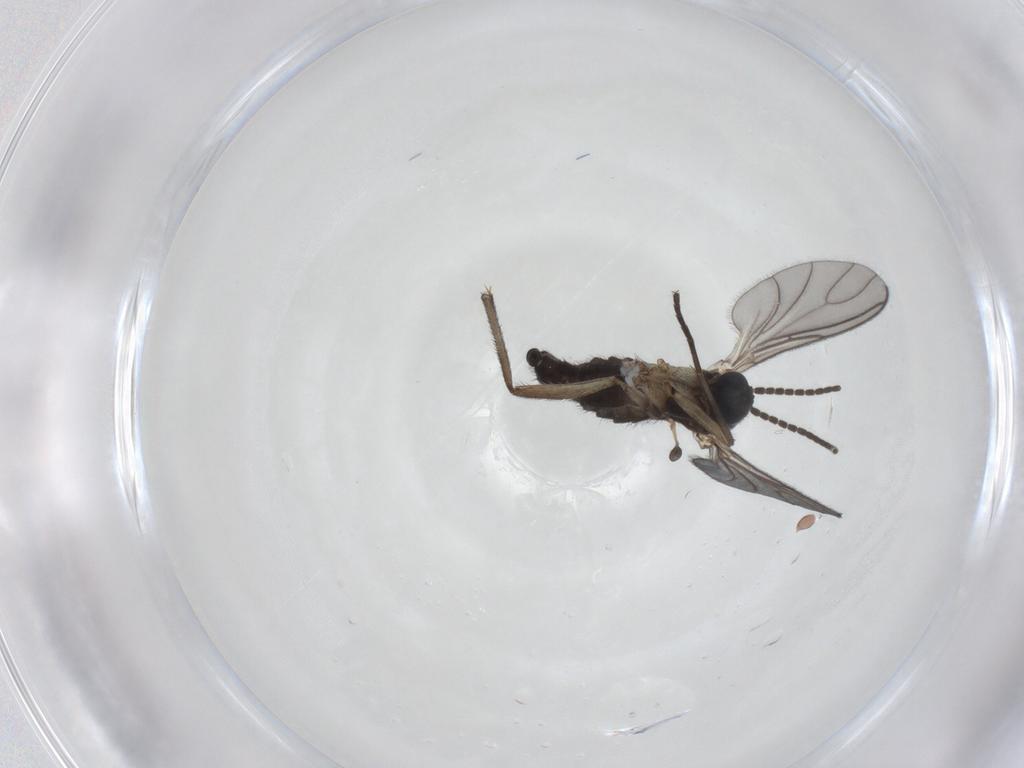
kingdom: Animalia
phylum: Arthropoda
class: Insecta
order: Diptera
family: Sciaridae
